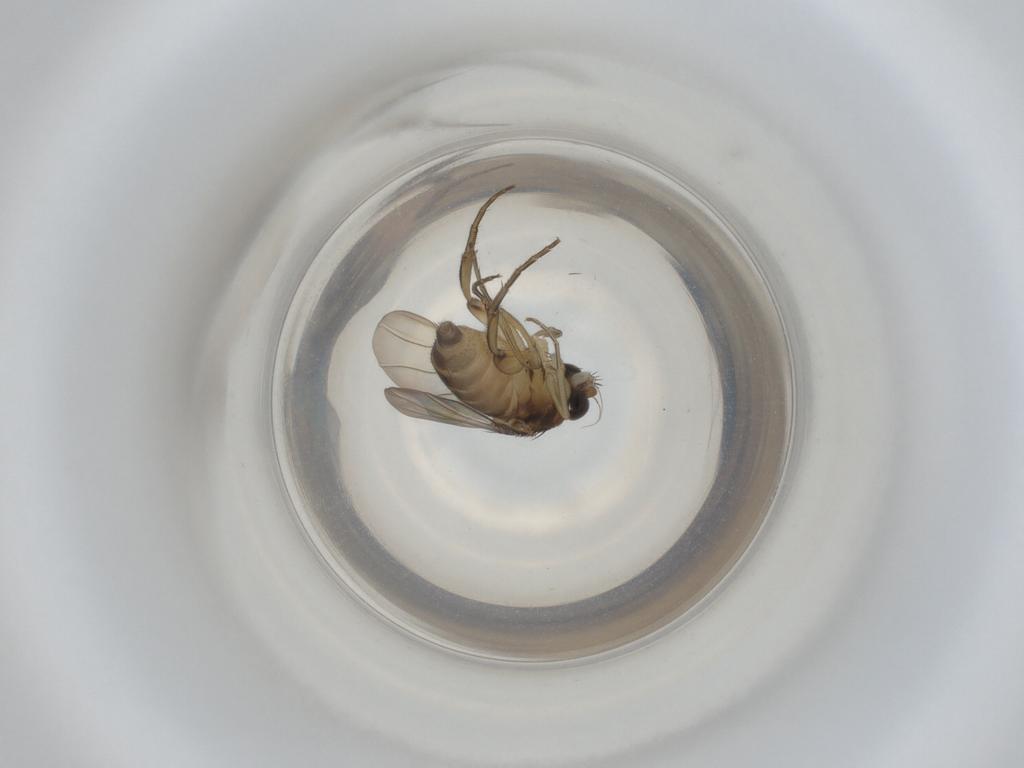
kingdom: Animalia
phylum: Arthropoda
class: Insecta
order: Diptera
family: Phoridae
